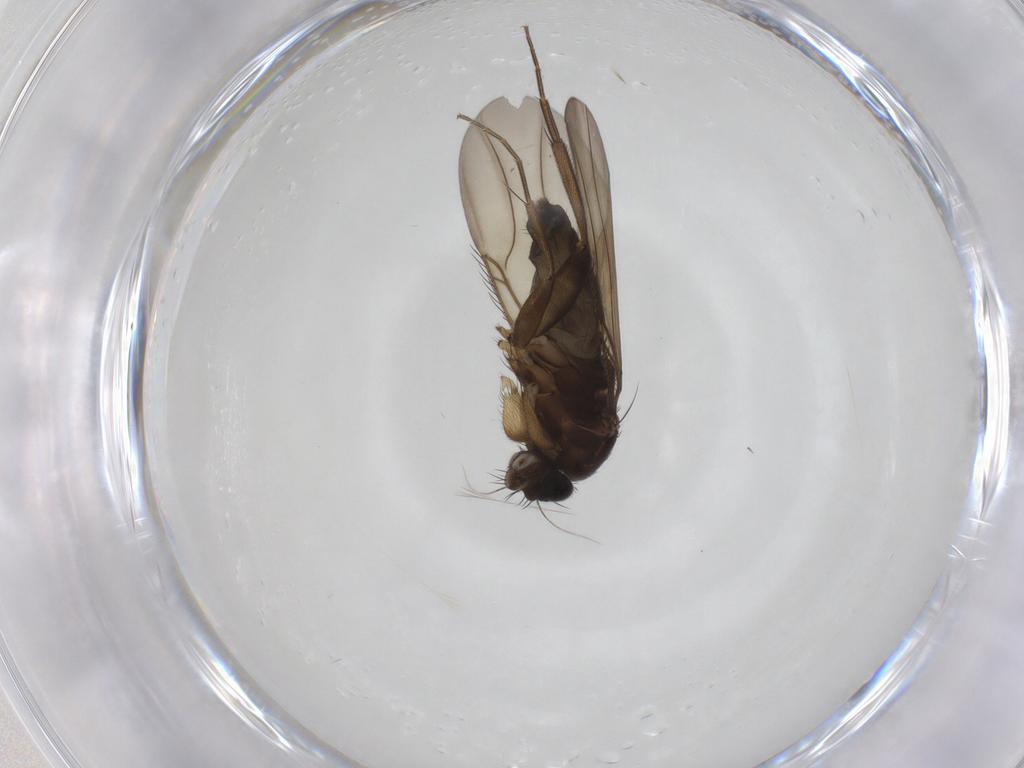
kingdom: Animalia
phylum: Arthropoda
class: Insecta
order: Diptera
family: Phoridae
